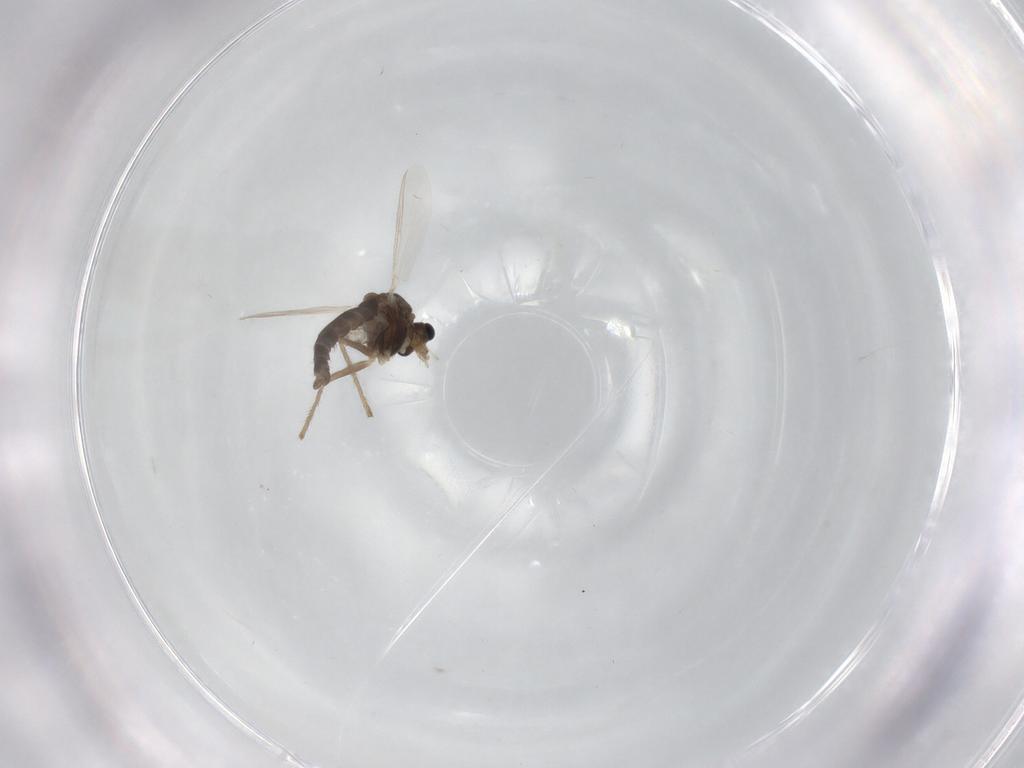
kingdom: Animalia
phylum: Arthropoda
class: Insecta
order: Diptera
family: Chironomidae
